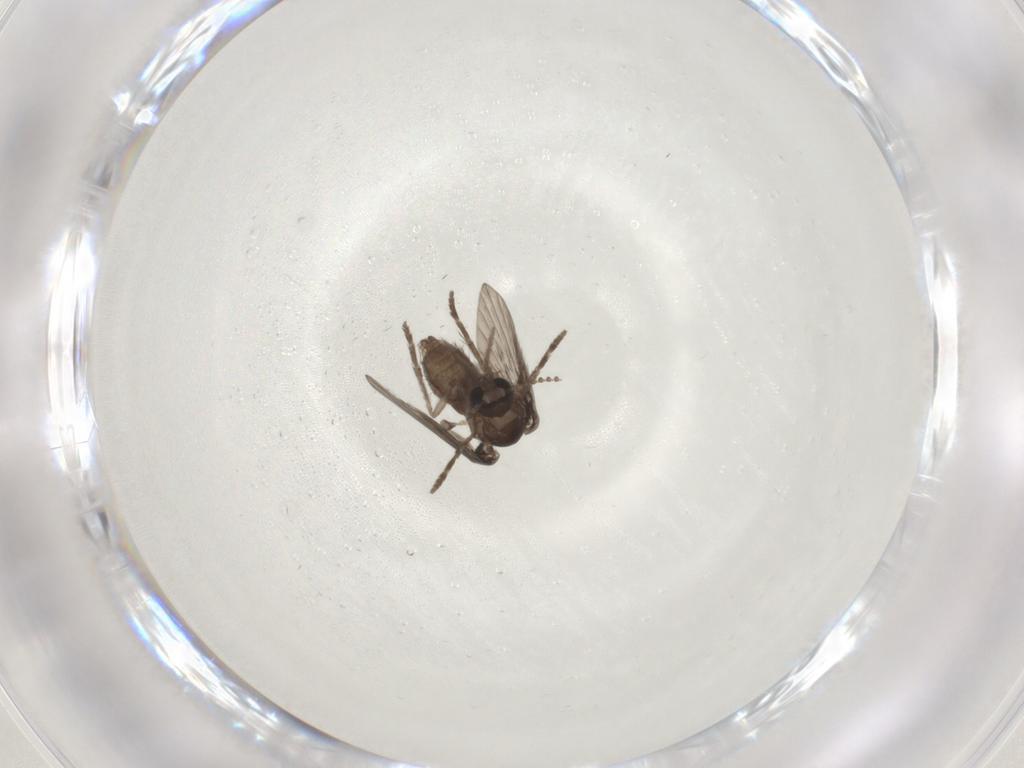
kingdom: Animalia
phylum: Arthropoda
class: Insecta
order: Diptera
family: Psychodidae
